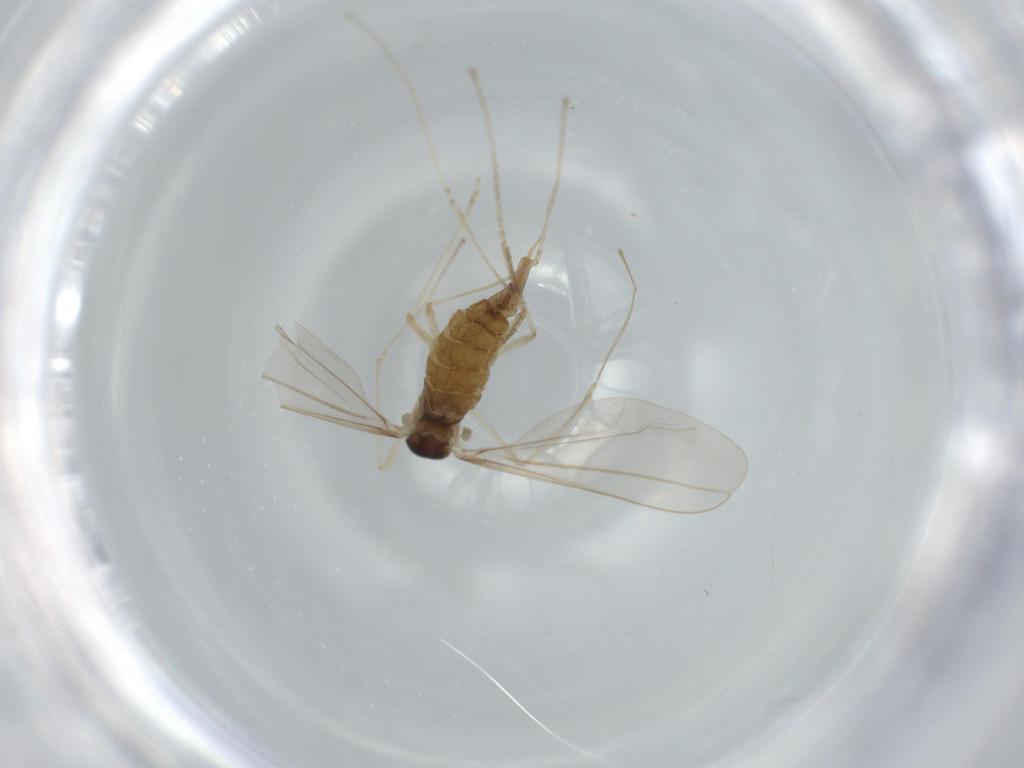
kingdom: Animalia
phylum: Arthropoda
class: Insecta
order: Diptera
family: Cecidomyiidae
